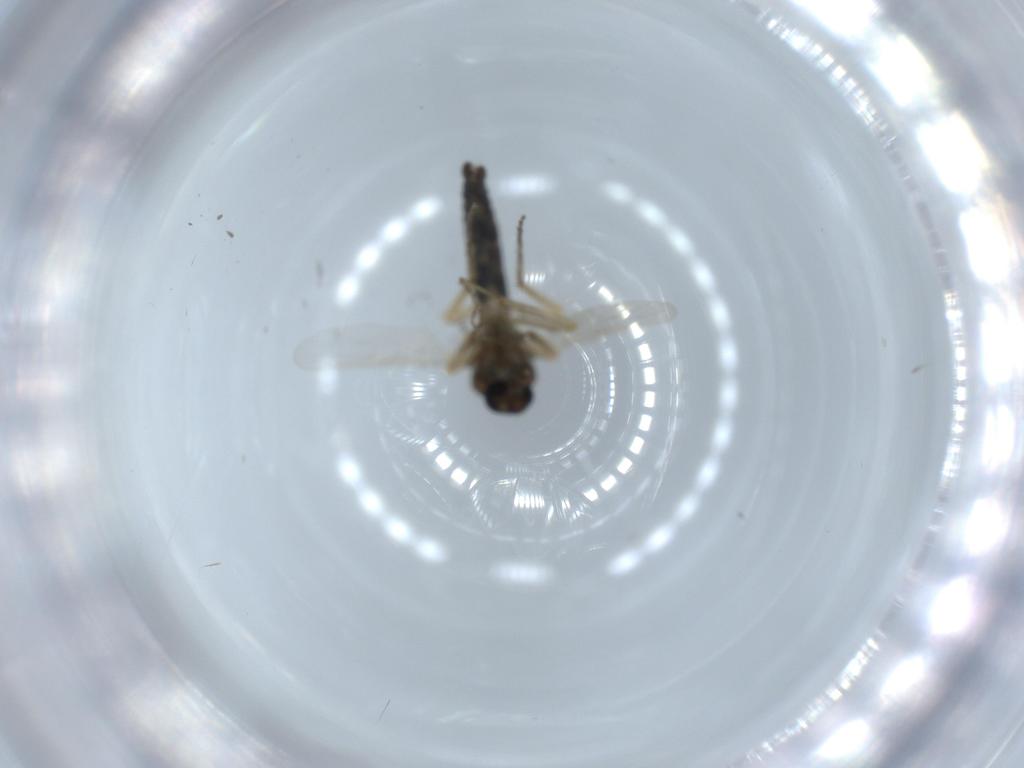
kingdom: Animalia
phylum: Arthropoda
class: Insecta
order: Diptera
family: Ceratopogonidae
